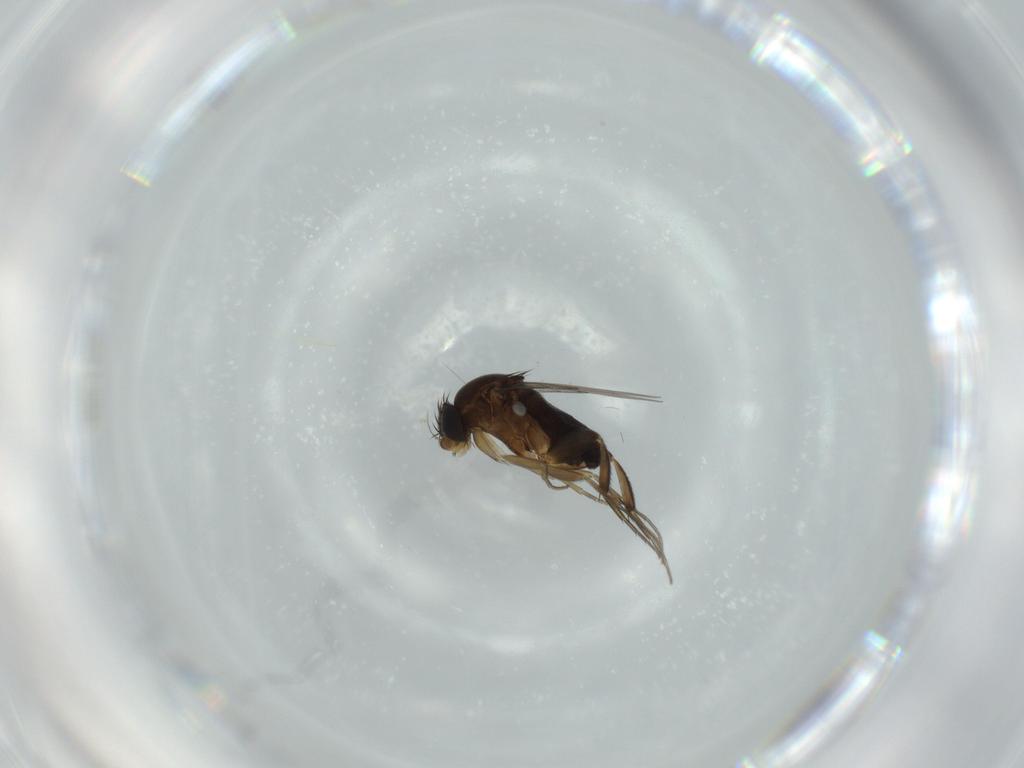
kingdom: Animalia
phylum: Arthropoda
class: Insecta
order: Diptera
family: Phoridae
